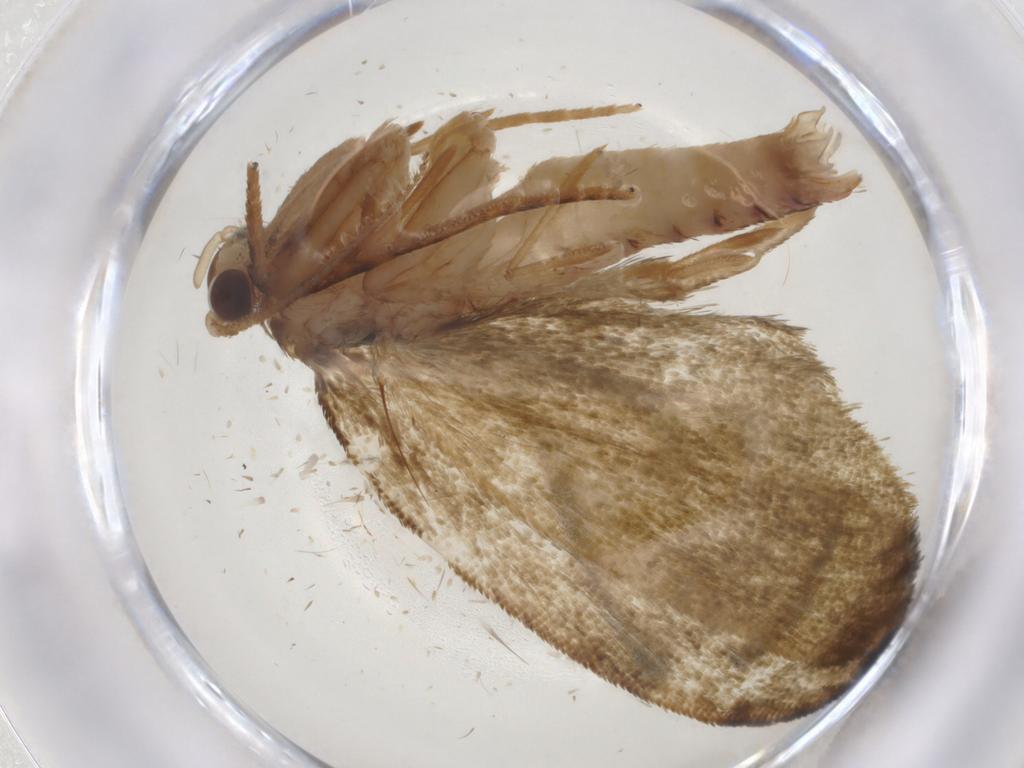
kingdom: Animalia
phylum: Arthropoda
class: Insecta
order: Lepidoptera
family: Geometridae
